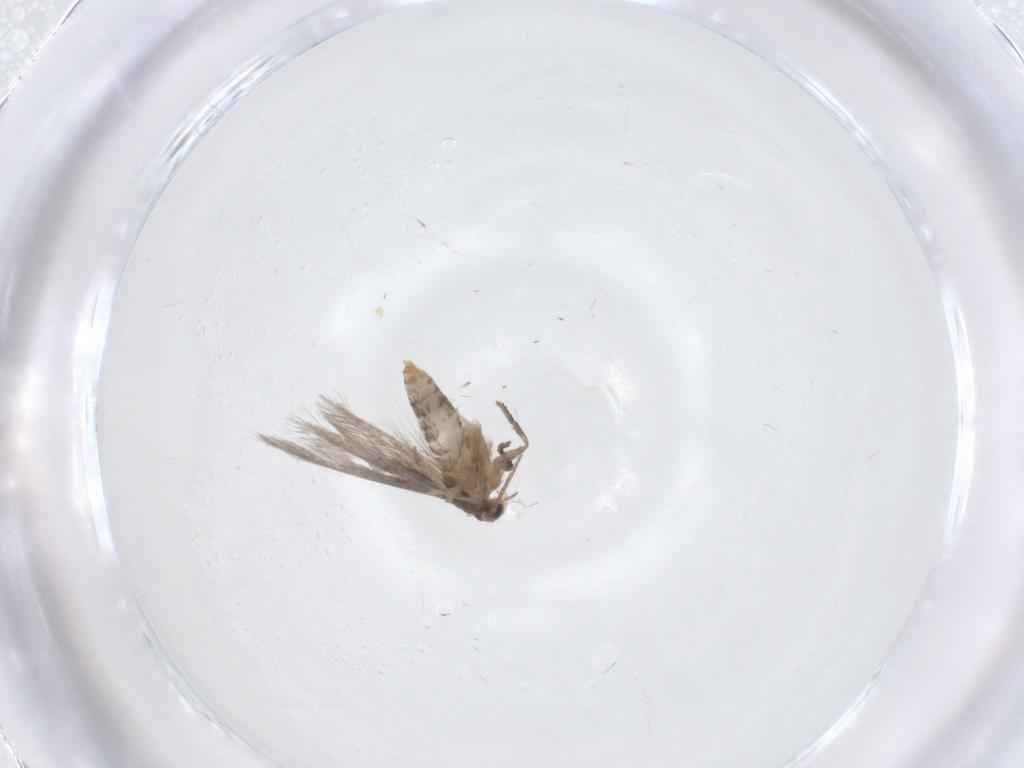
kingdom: Animalia
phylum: Arthropoda
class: Insecta
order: Lepidoptera
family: Nepticulidae
